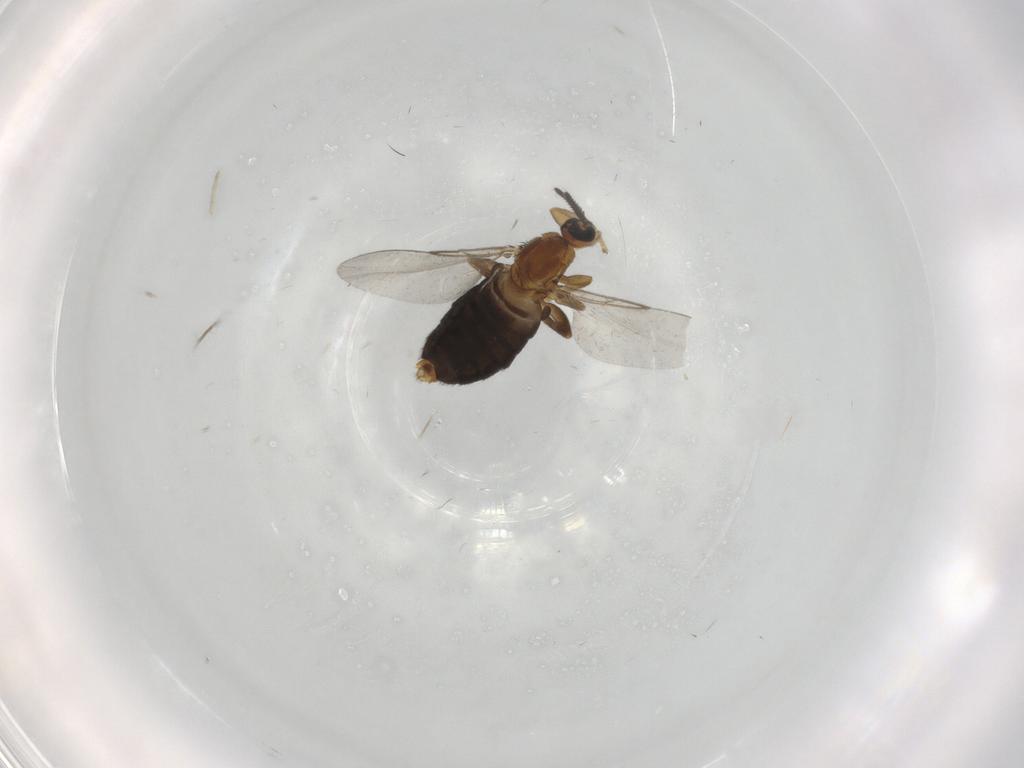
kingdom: Animalia
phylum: Arthropoda
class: Insecta
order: Diptera
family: Scatopsidae
